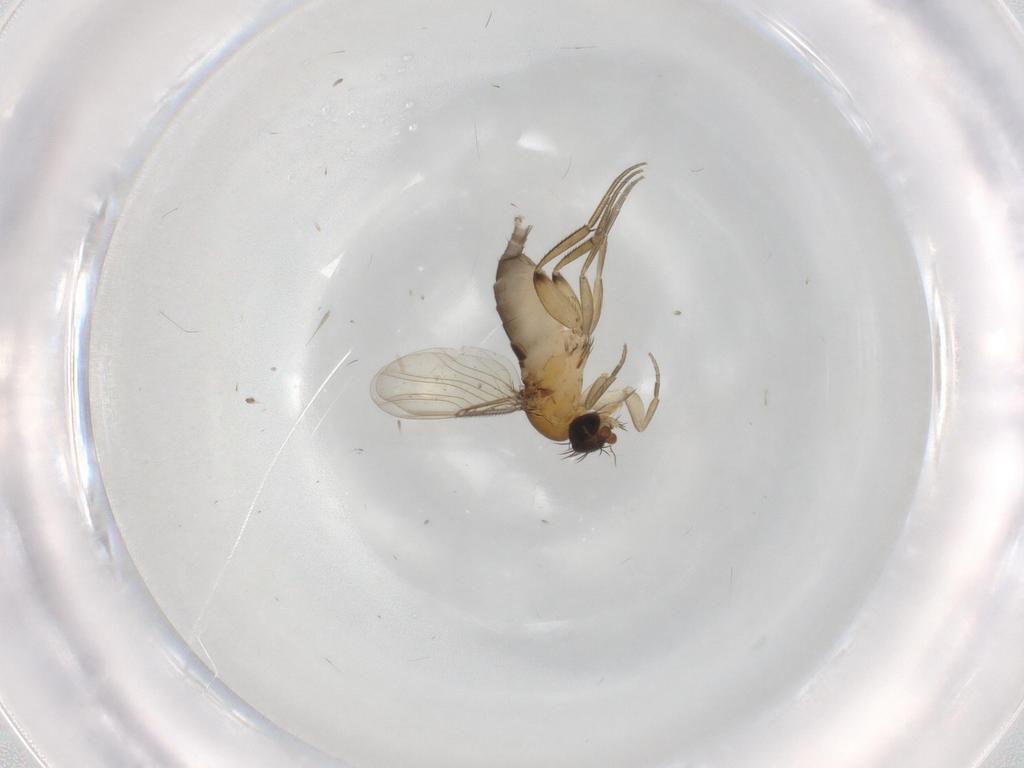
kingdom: Animalia
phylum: Arthropoda
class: Insecta
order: Diptera
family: Phoridae
